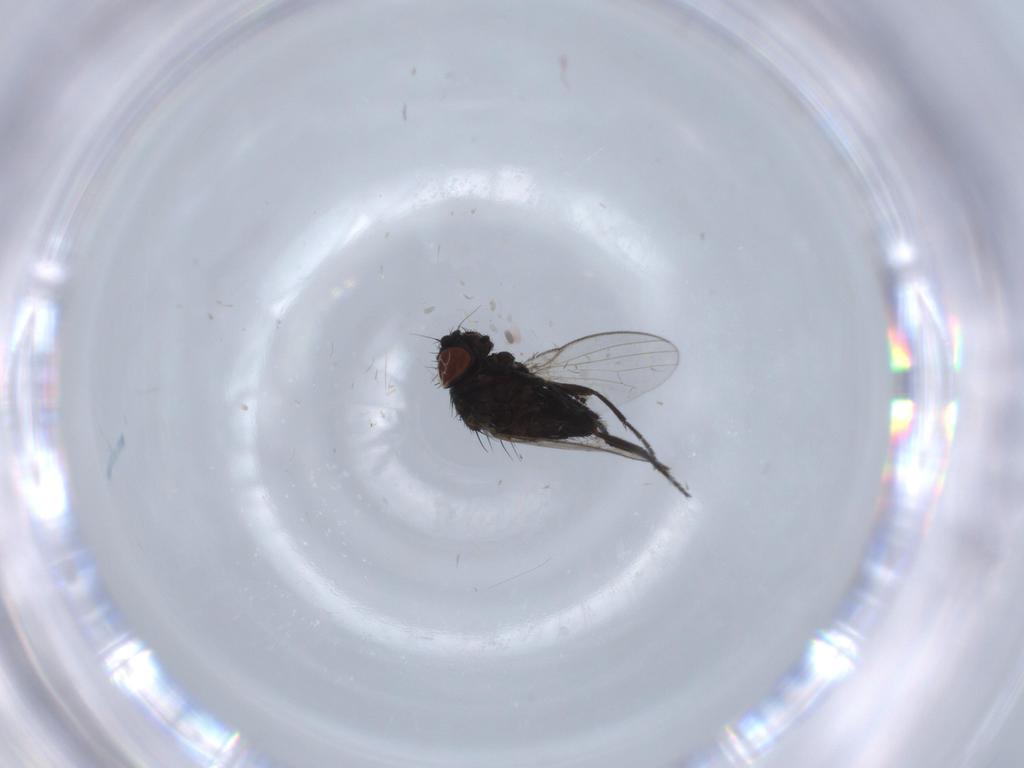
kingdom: Animalia
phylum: Arthropoda
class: Insecta
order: Diptera
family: Milichiidae
